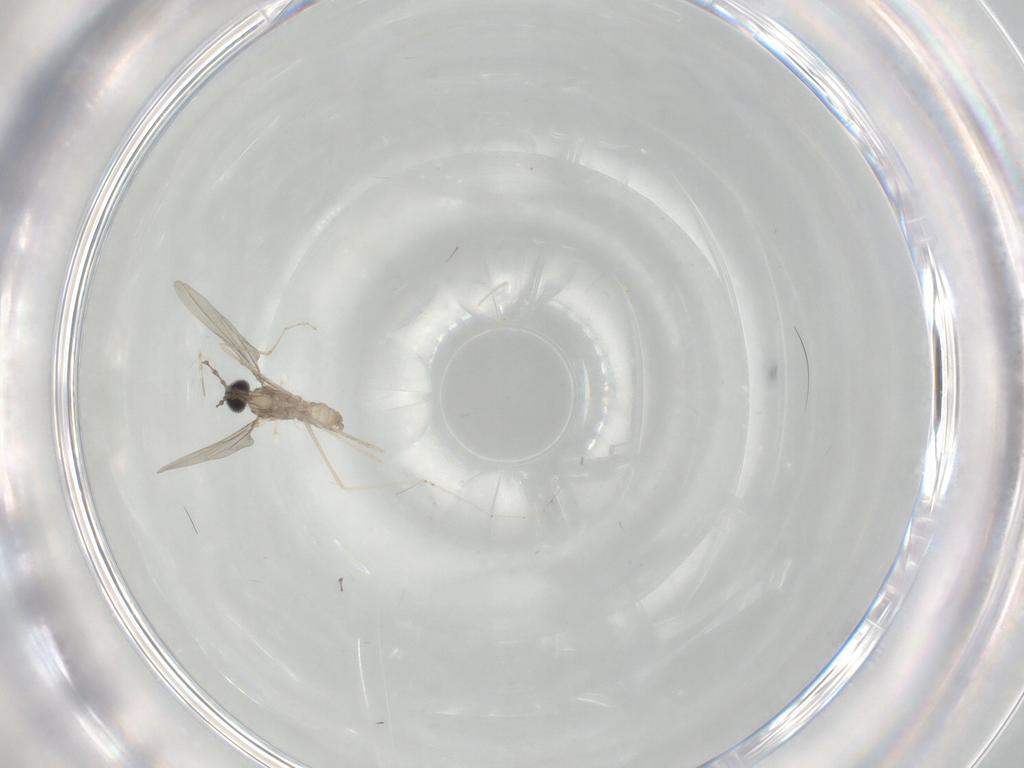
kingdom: Animalia
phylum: Arthropoda
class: Insecta
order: Diptera
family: Cecidomyiidae
